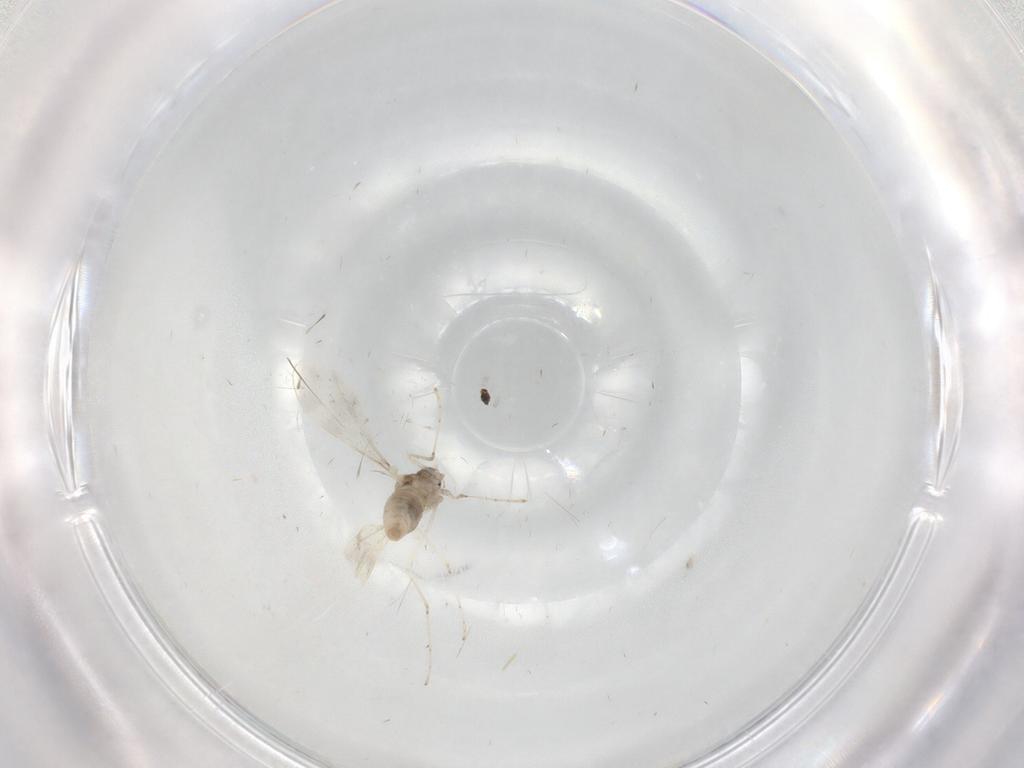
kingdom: Animalia
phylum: Arthropoda
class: Insecta
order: Diptera
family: Cecidomyiidae
